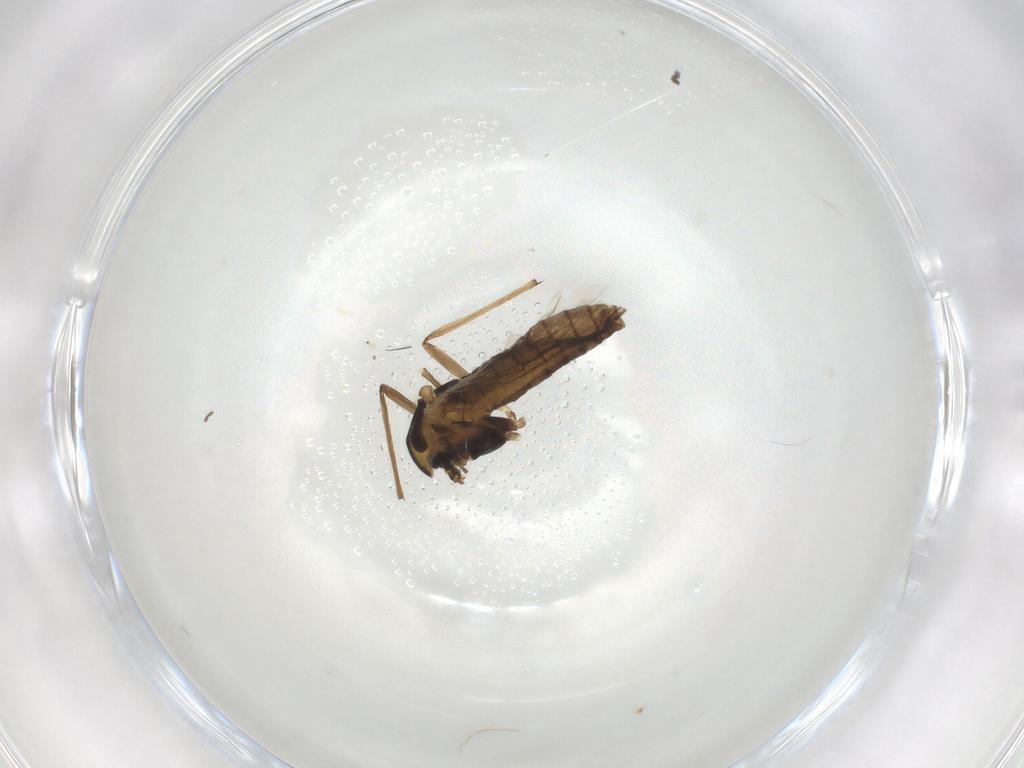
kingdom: Animalia
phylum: Arthropoda
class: Insecta
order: Diptera
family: Chironomidae
